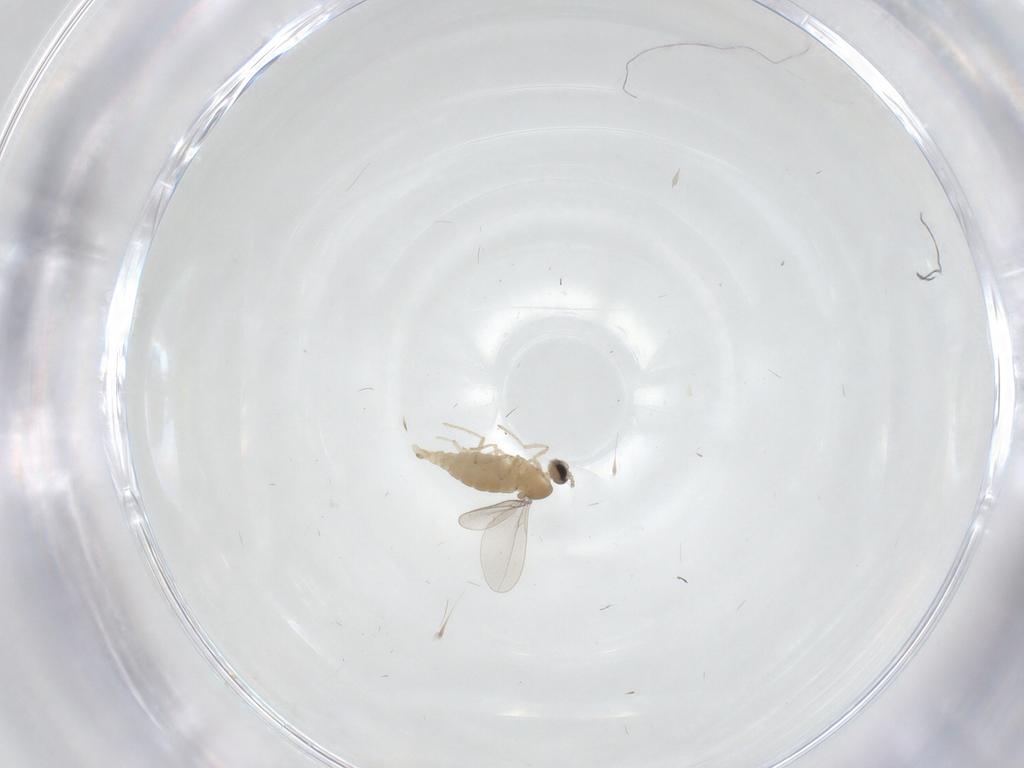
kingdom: Animalia
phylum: Arthropoda
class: Insecta
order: Diptera
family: Cecidomyiidae
